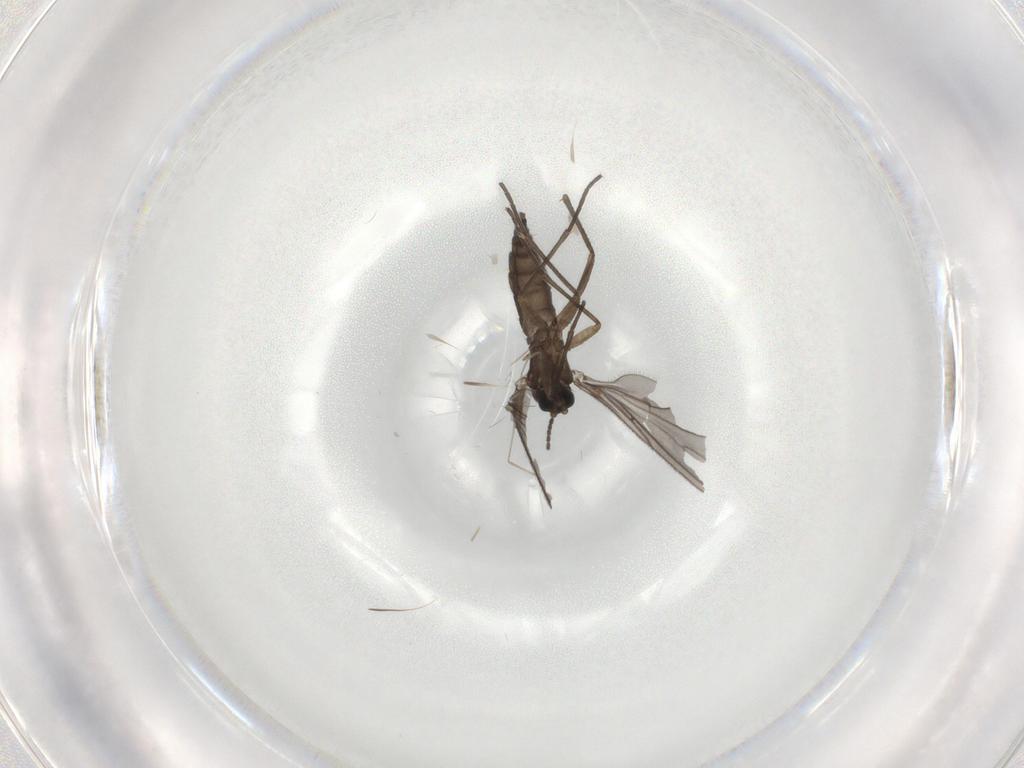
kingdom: Animalia
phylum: Arthropoda
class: Insecta
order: Diptera
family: Sciaridae
